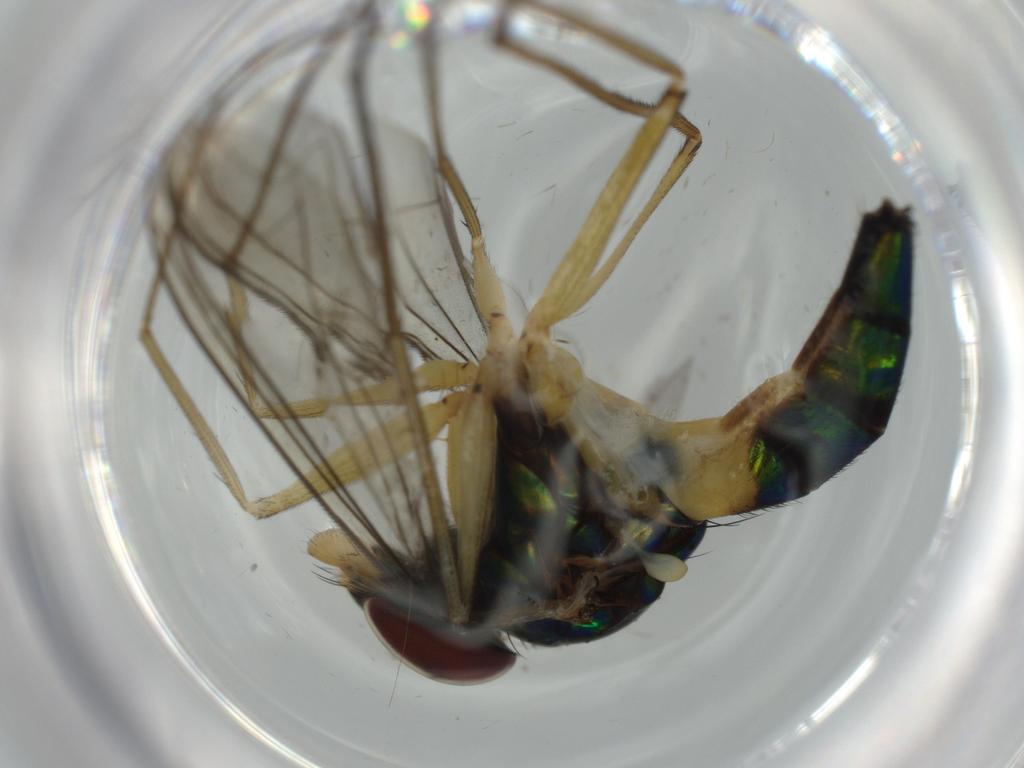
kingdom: Animalia
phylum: Arthropoda
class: Insecta
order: Diptera
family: Dolichopodidae
